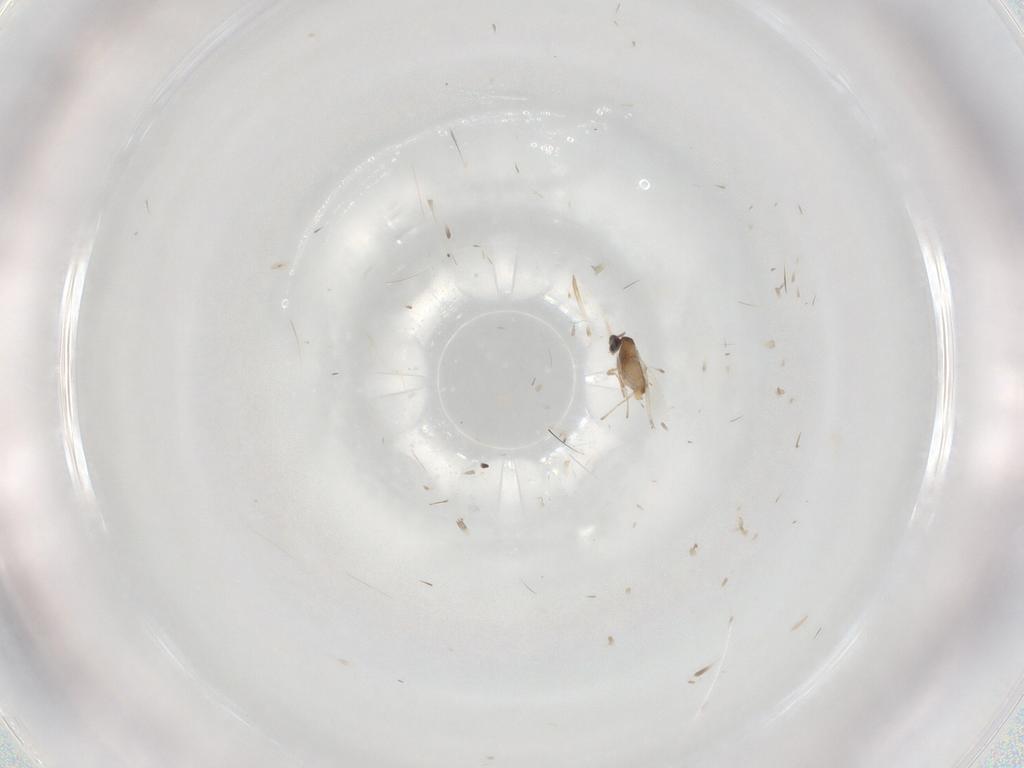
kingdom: Animalia
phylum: Arthropoda
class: Insecta
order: Diptera
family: Cecidomyiidae
